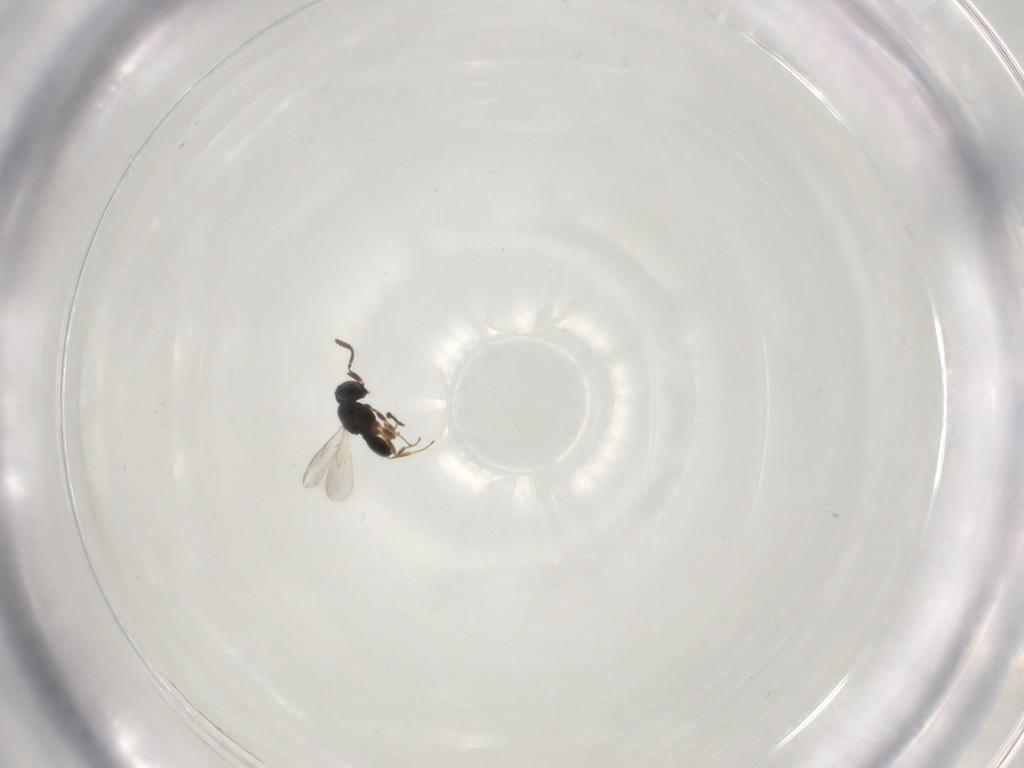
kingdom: Animalia
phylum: Arthropoda
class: Insecta
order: Hymenoptera
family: Scelionidae
